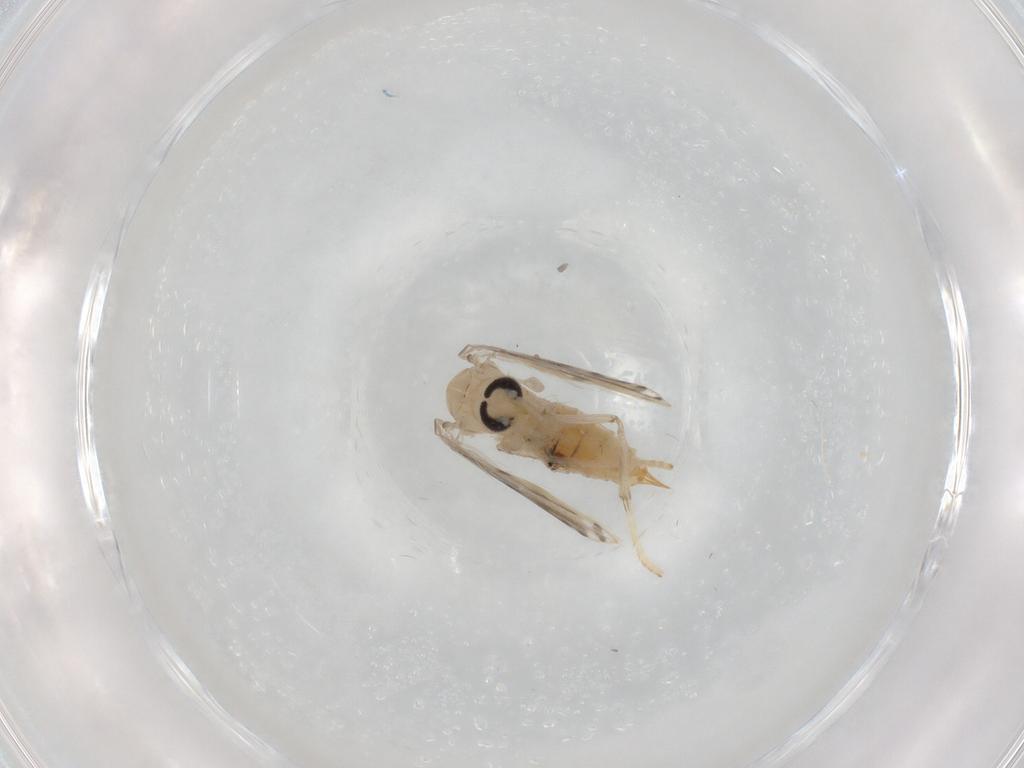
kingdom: Animalia
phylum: Arthropoda
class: Insecta
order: Diptera
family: Psychodidae
